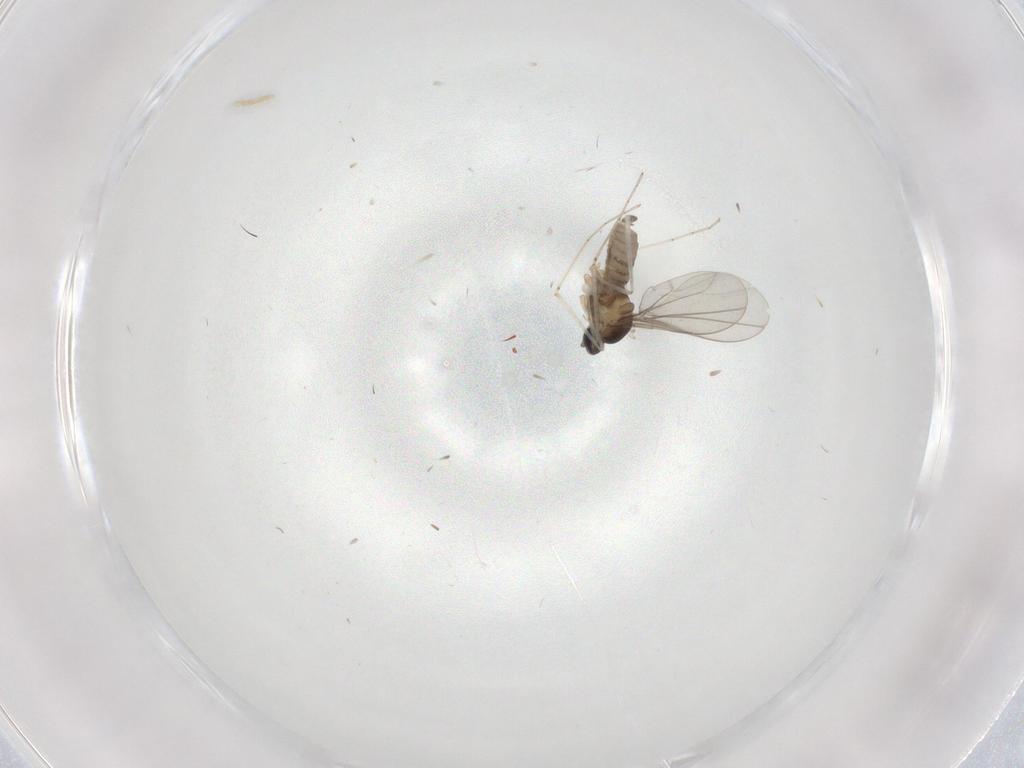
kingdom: Animalia
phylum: Arthropoda
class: Insecta
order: Diptera
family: Cecidomyiidae
